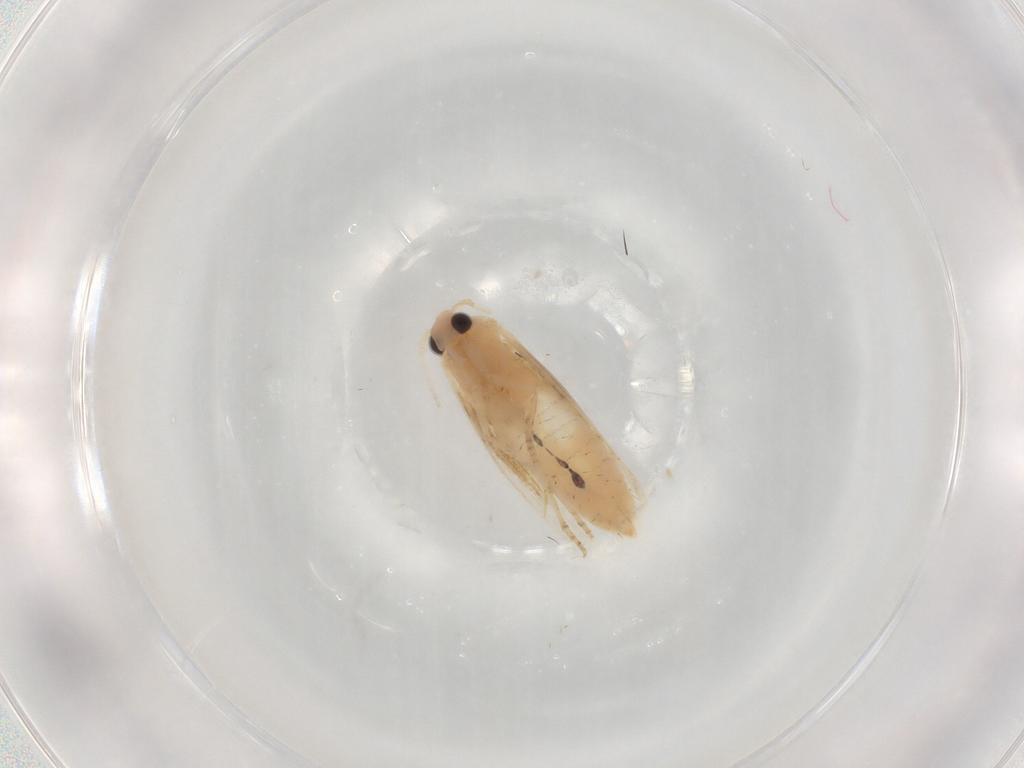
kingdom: Animalia
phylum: Arthropoda
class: Insecta
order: Lepidoptera
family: Bucculatricidae
